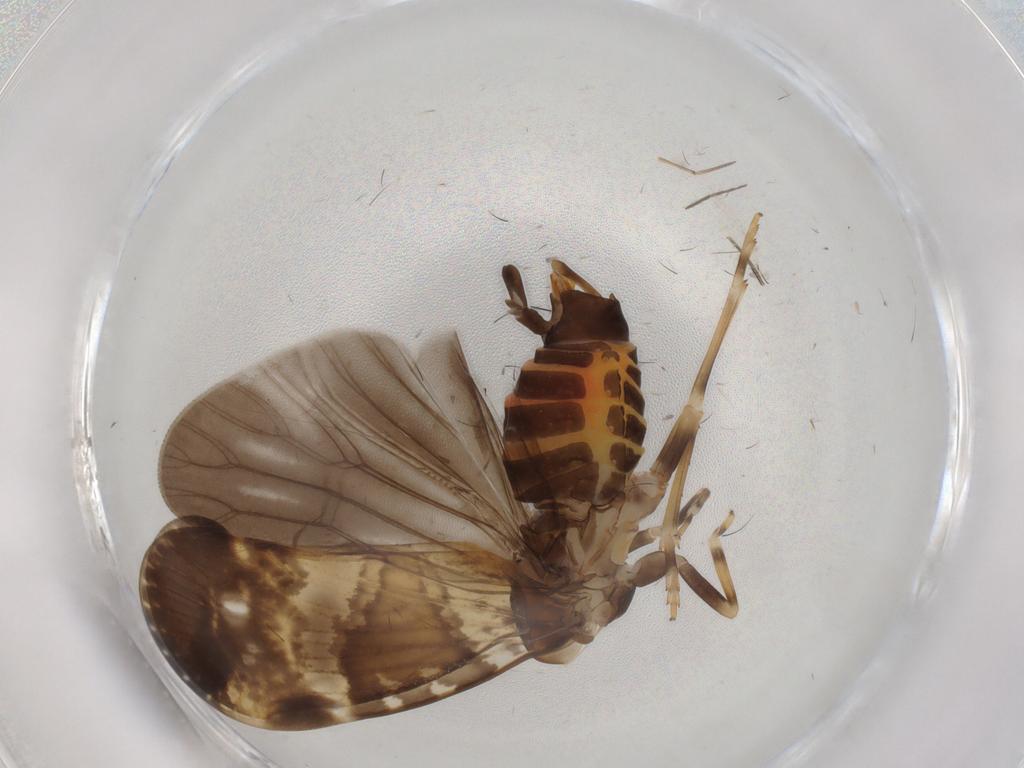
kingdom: Animalia
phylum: Arthropoda
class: Insecta
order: Hemiptera
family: Cixiidae
